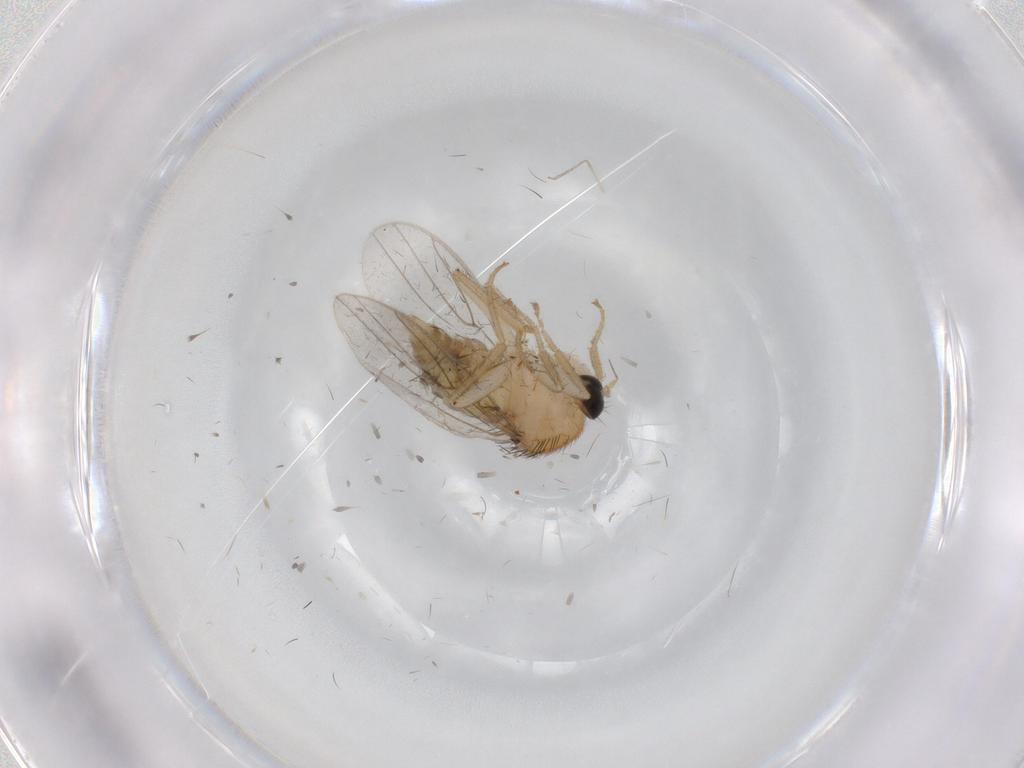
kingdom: Animalia
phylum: Arthropoda
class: Insecta
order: Diptera
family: Hybotidae
